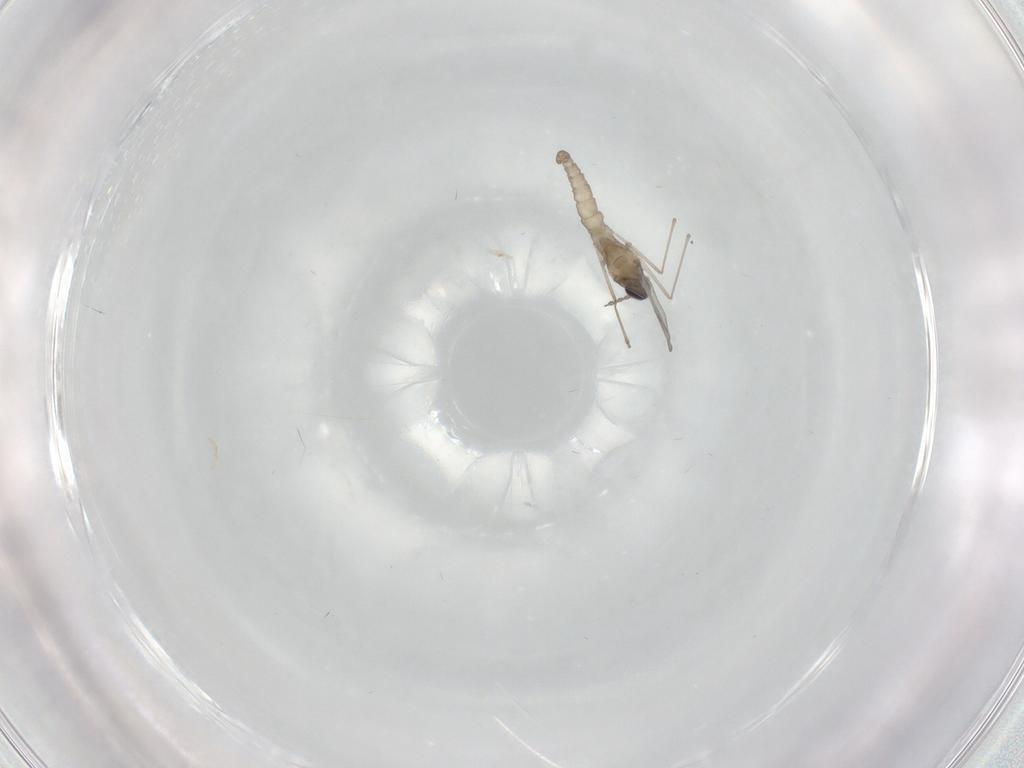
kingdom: Animalia
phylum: Arthropoda
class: Insecta
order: Diptera
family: Cecidomyiidae
